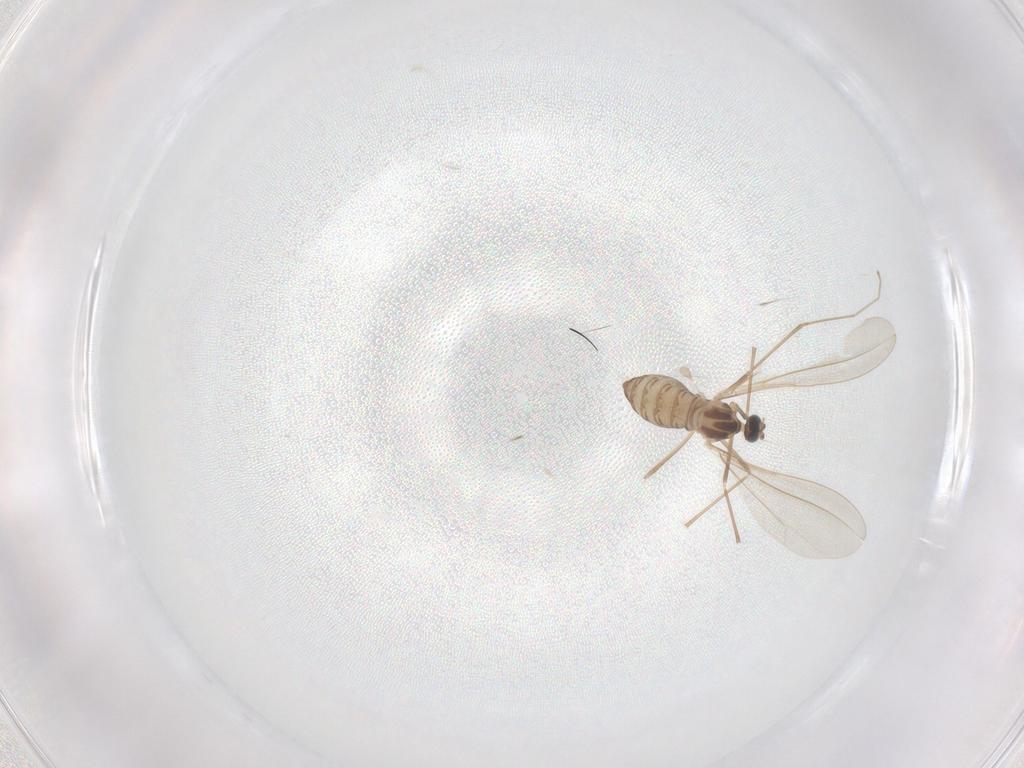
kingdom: Animalia
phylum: Arthropoda
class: Insecta
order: Diptera
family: Cecidomyiidae
